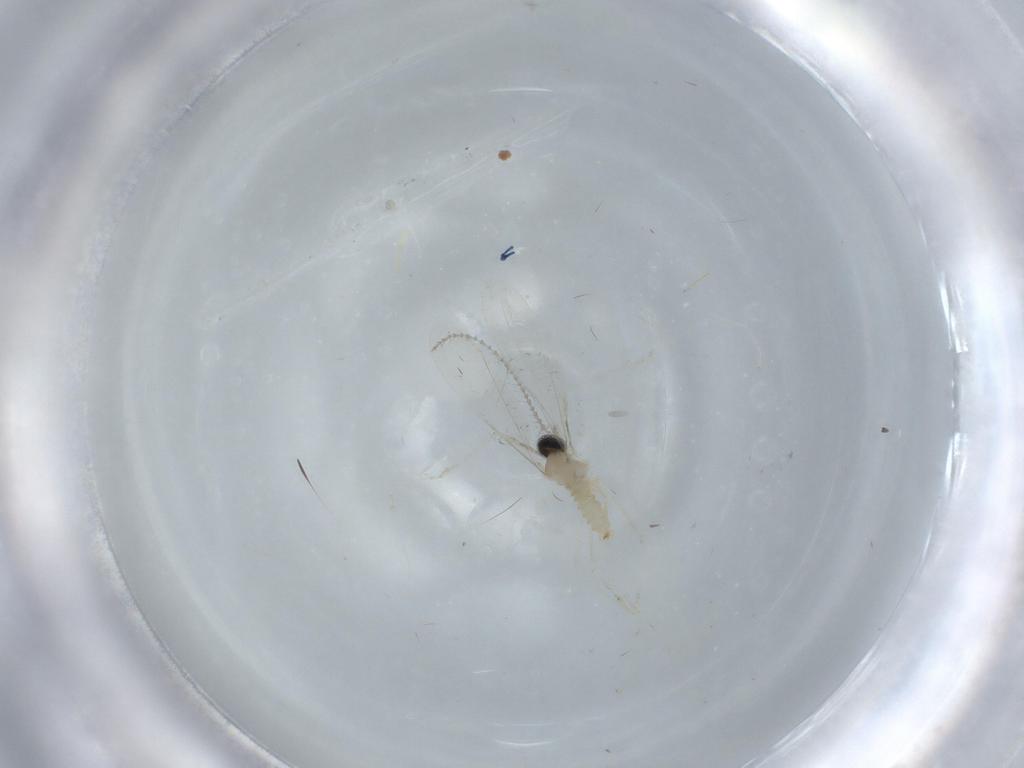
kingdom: Animalia
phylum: Arthropoda
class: Insecta
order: Diptera
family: Cecidomyiidae
